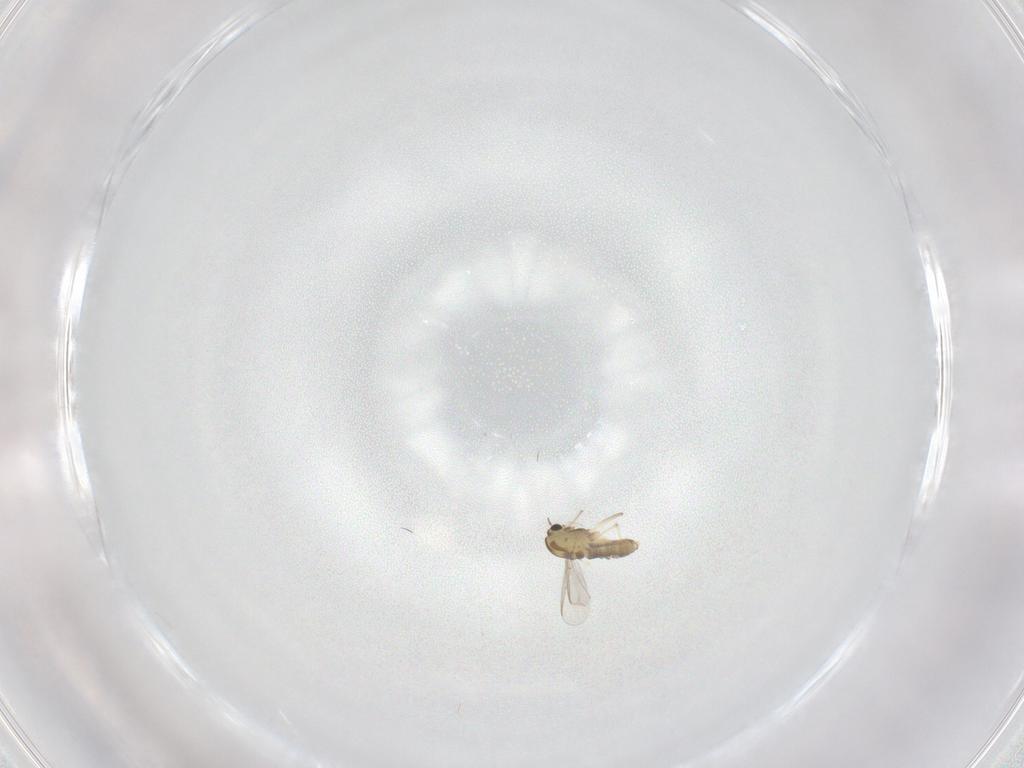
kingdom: Animalia
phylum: Arthropoda
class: Insecta
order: Diptera
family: Chironomidae
